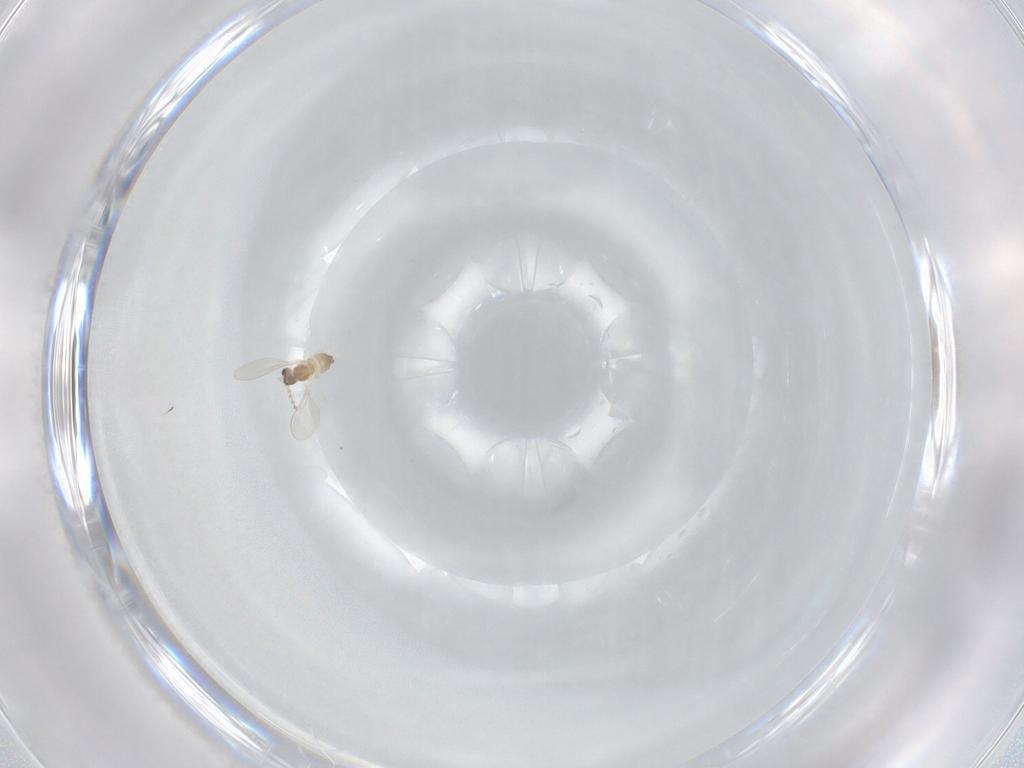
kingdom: Animalia
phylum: Arthropoda
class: Insecta
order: Diptera
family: Cecidomyiidae
